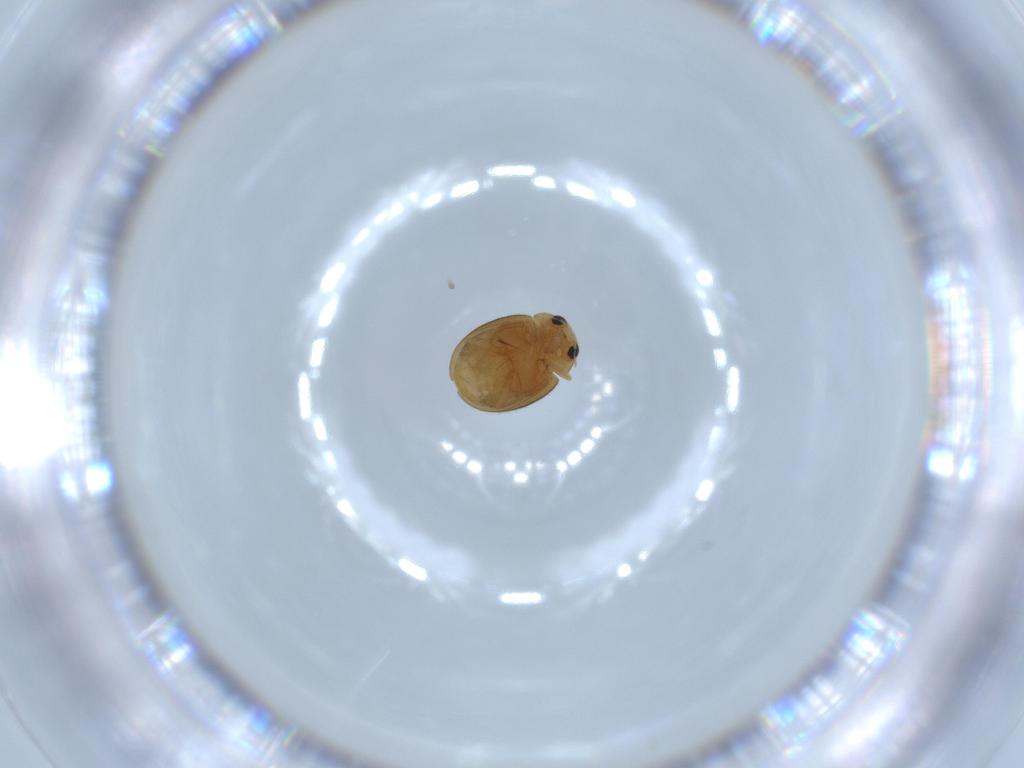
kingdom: Animalia
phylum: Arthropoda
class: Insecta
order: Coleoptera
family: Coccinellidae
